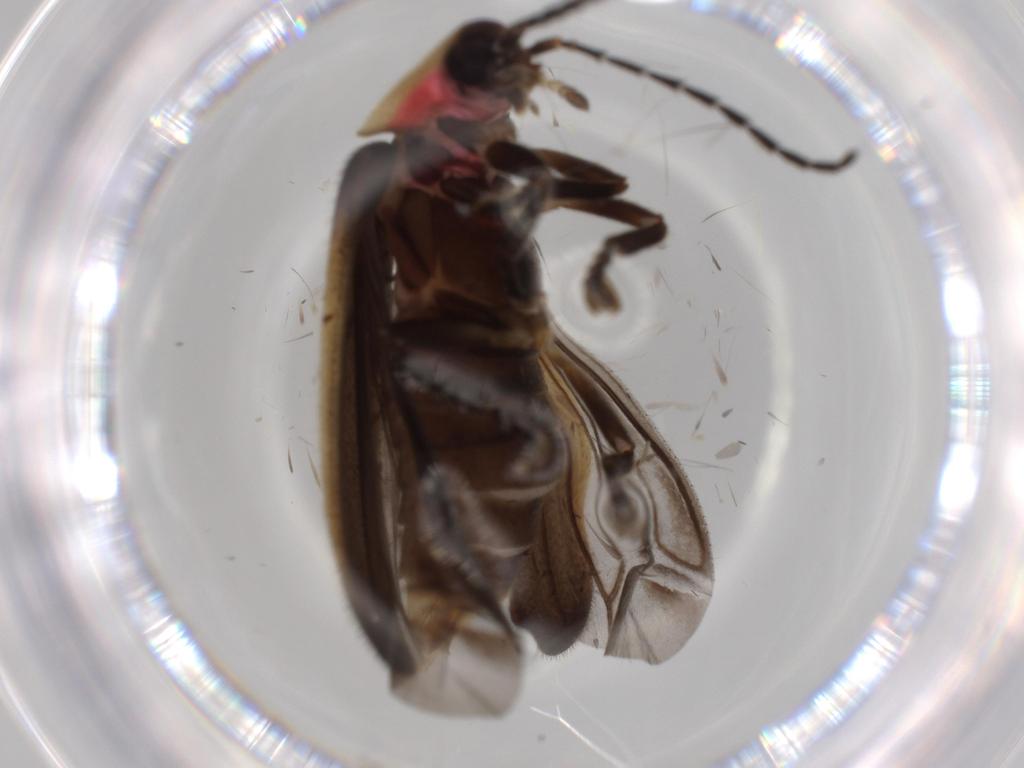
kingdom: Animalia
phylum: Arthropoda
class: Insecta
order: Coleoptera
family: Lampyridae
